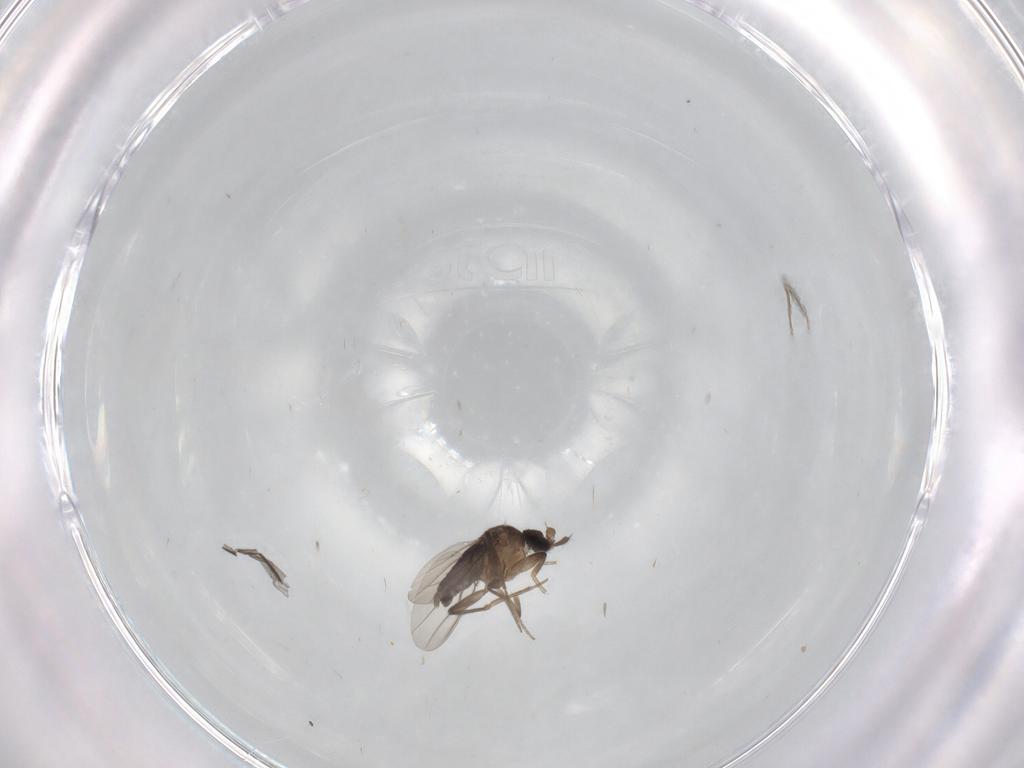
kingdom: Animalia
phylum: Arthropoda
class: Insecta
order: Diptera
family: Phoridae
